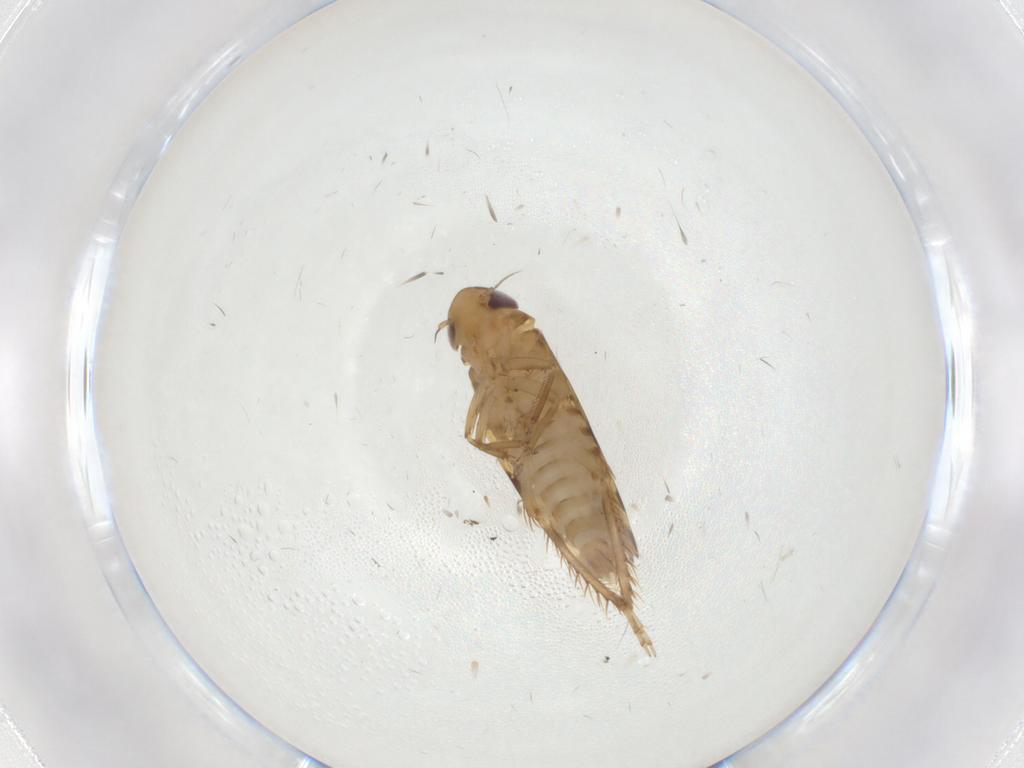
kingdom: Animalia
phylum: Arthropoda
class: Insecta
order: Hemiptera
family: Cicadellidae
